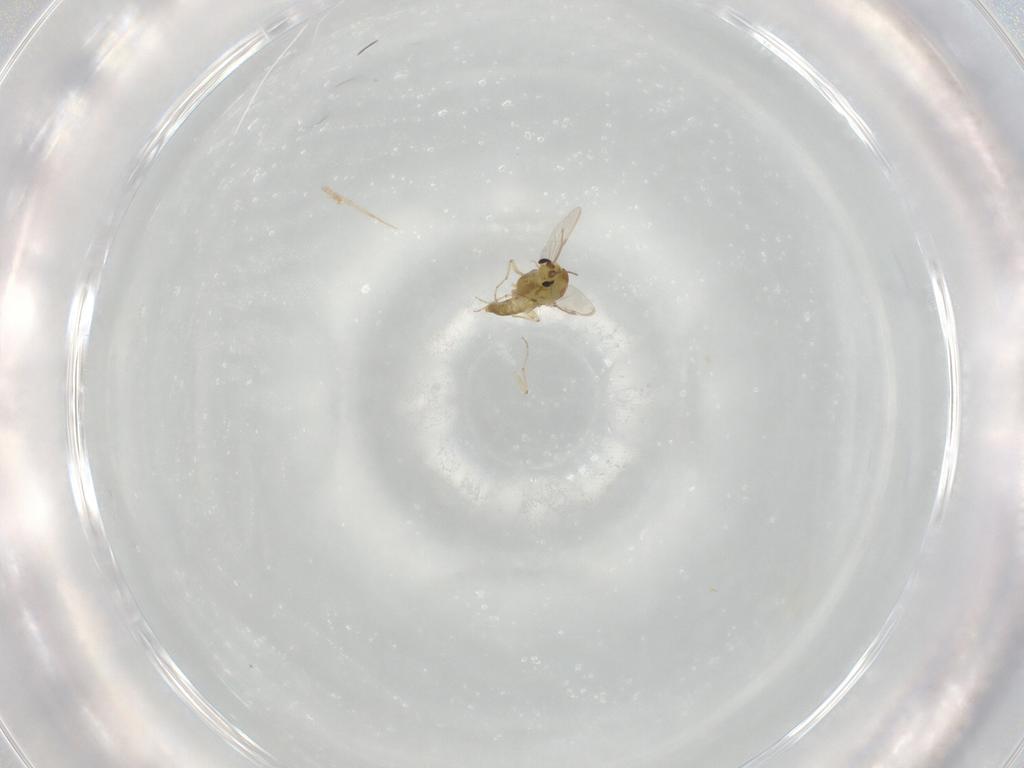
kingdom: Animalia
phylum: Arthropoda
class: Insecta
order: Diptera
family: Chironomidae
